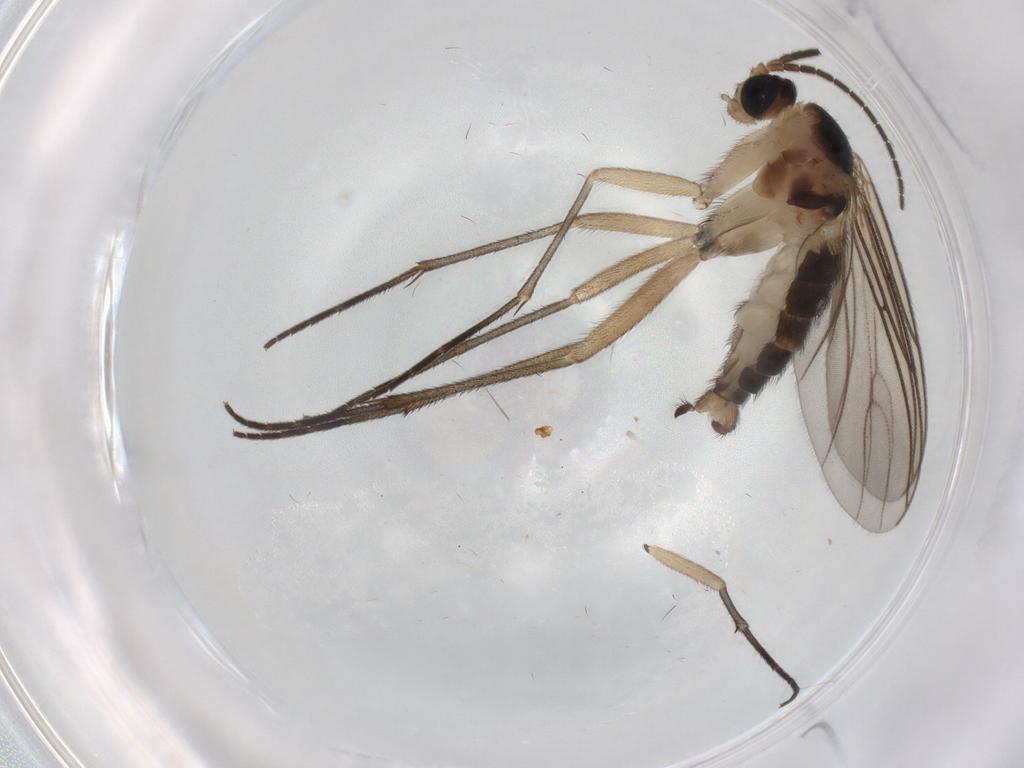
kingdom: Animalia
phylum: Arthropoda
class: Insecta
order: Diptera
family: Sciaridae
